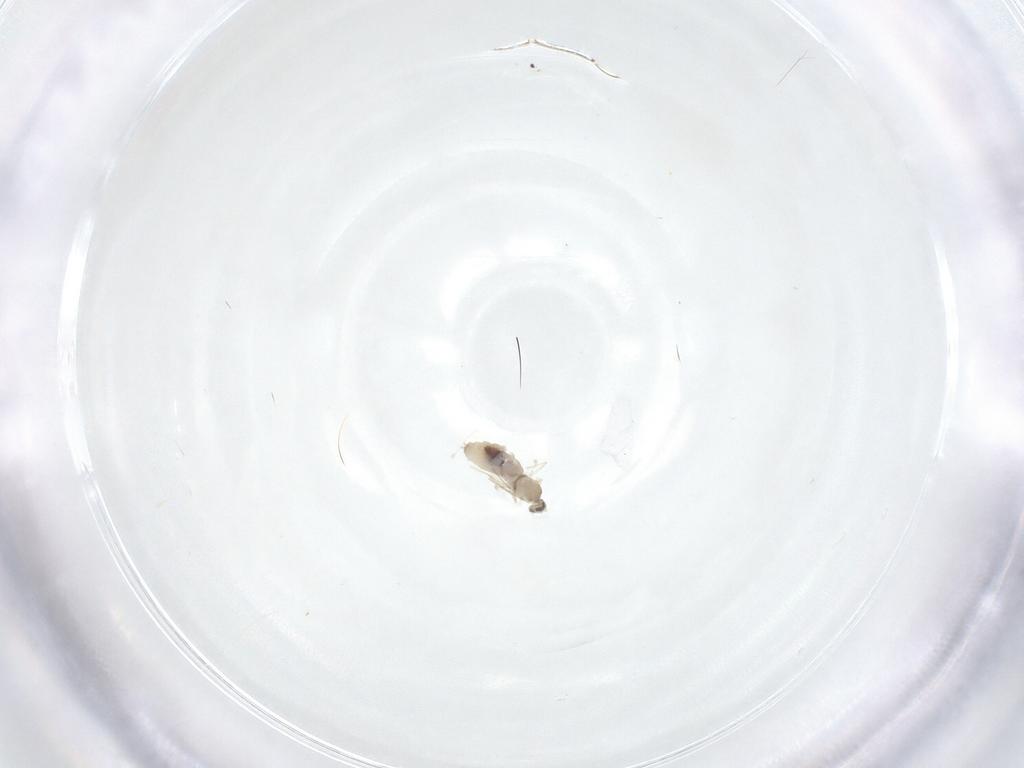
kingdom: Animalia
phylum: Arthropoda
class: Insecta
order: Diptera
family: Cecidomyiidae
